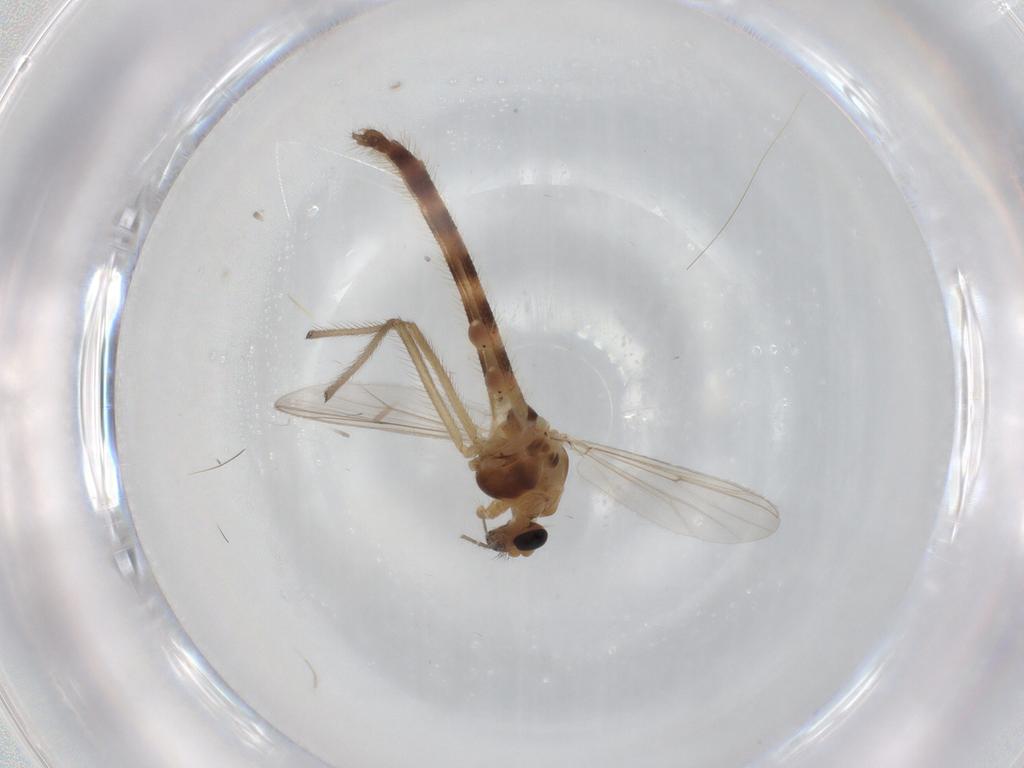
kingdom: Animalia
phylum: Arthropoda
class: Insecta
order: Diptera
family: Chironomidae
